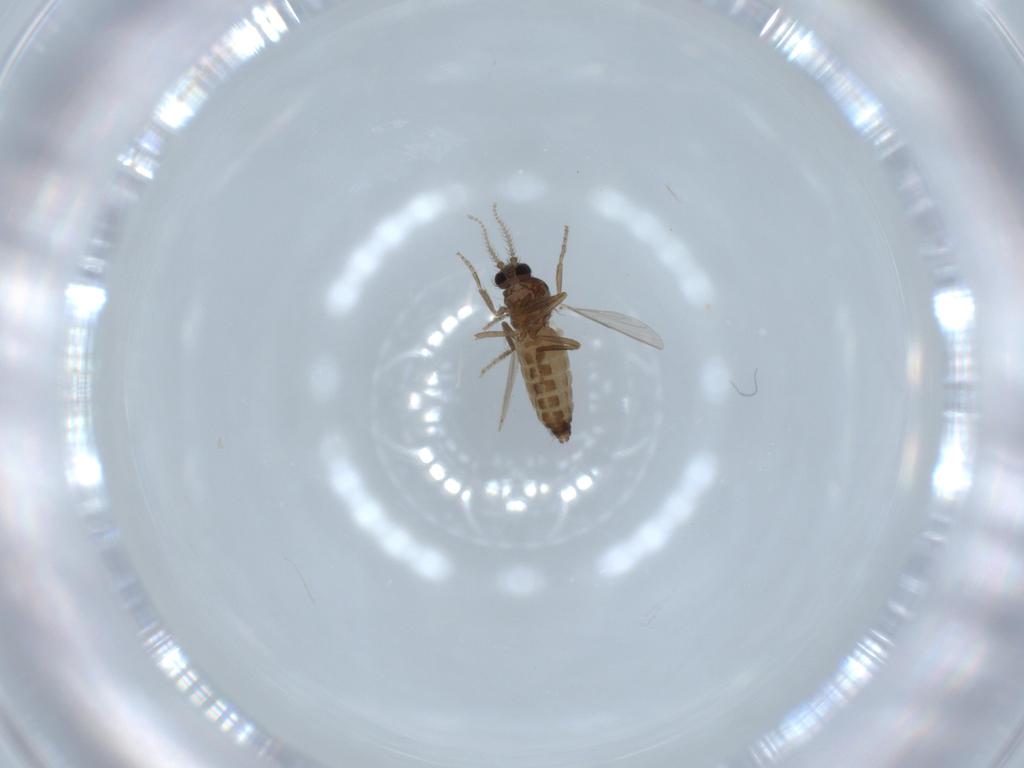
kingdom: Animalia
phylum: Arthropoda
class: Insecta
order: Diptera
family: Ceratopogonidae
